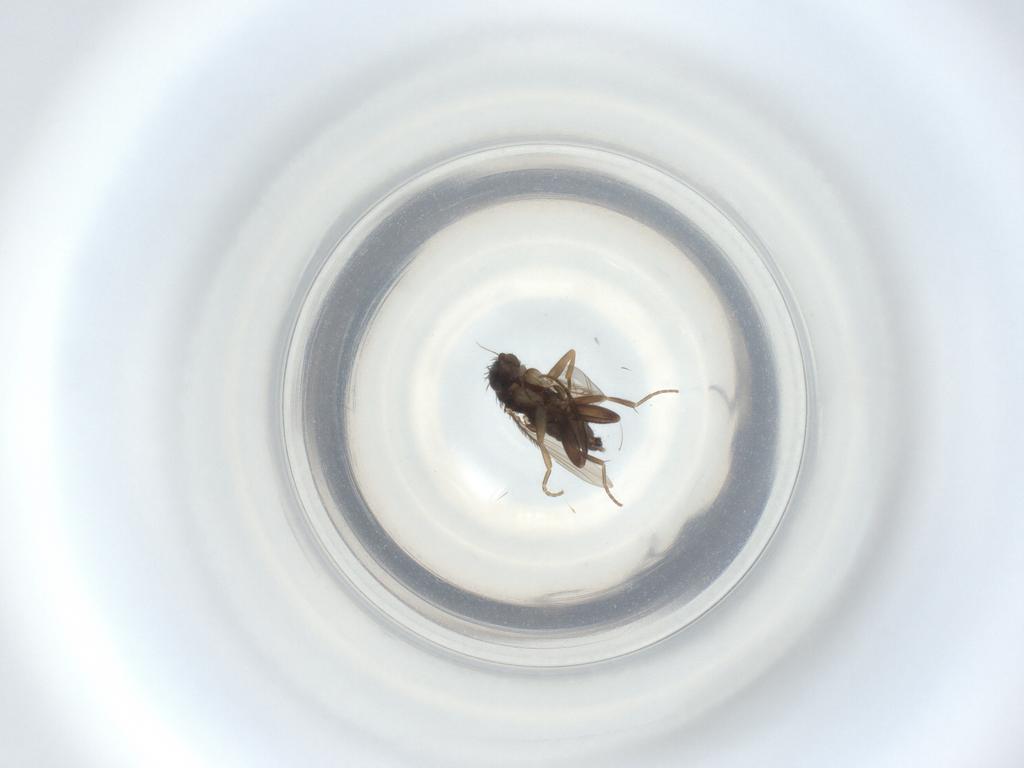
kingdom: Animalia
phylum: Arthropoda
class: Insecta
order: Diptera
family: Phoridae
